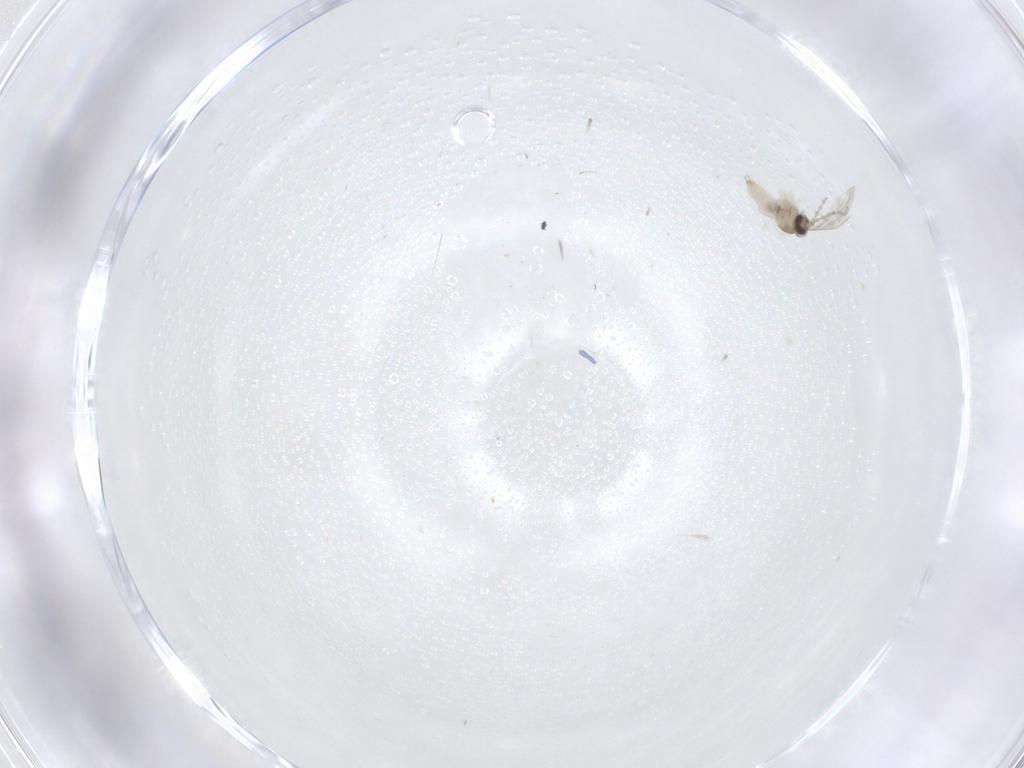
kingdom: Animalia
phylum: Arthropoda
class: Insecta
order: Diptera
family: Cecidomyiidae
